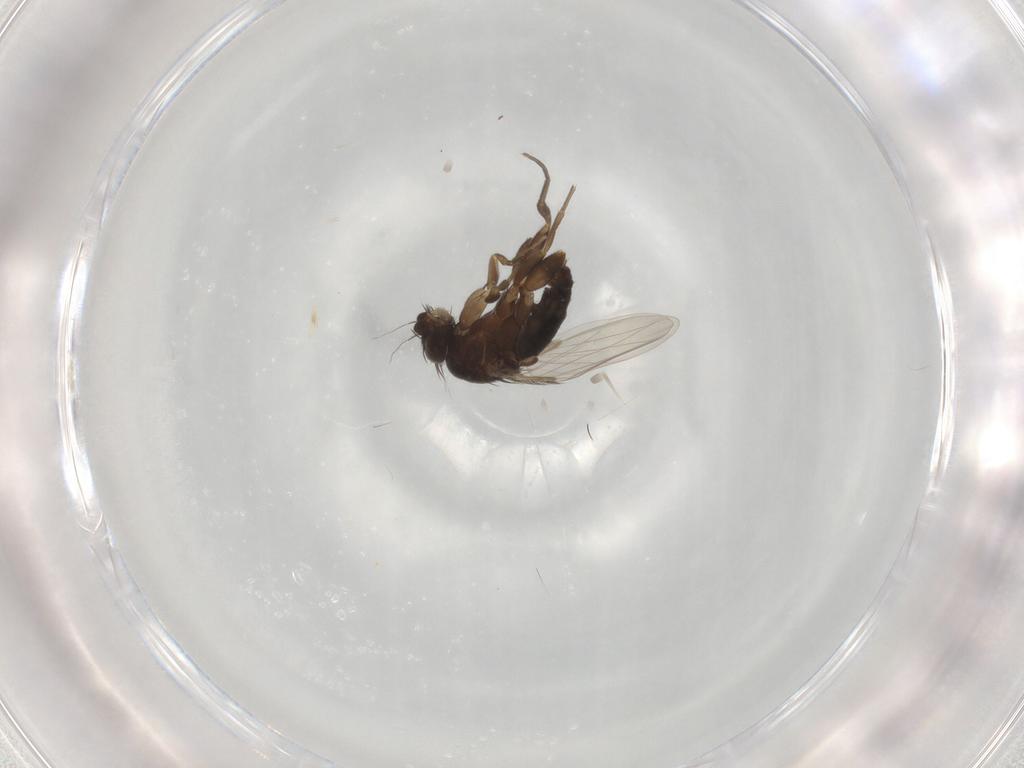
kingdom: Animalia
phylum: Arthropoda
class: Insecta
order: Diptera
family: Phoridae
